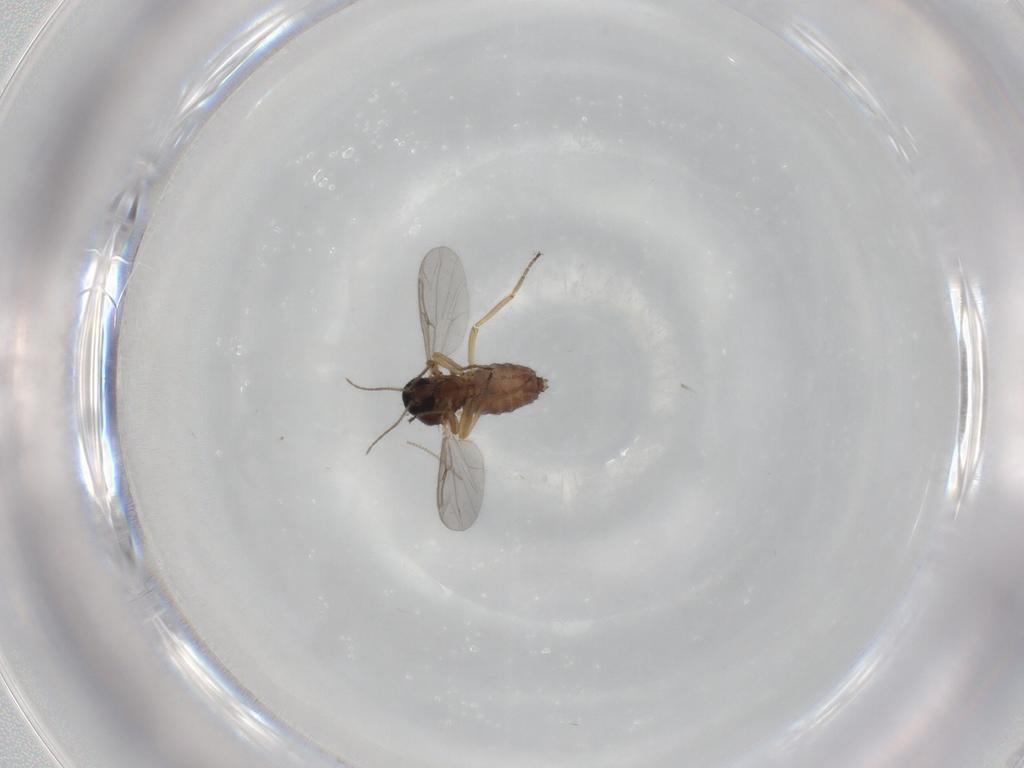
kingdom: Animalia
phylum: Arthropoda
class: Insecta
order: Diptera
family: Ceratopogonidae
